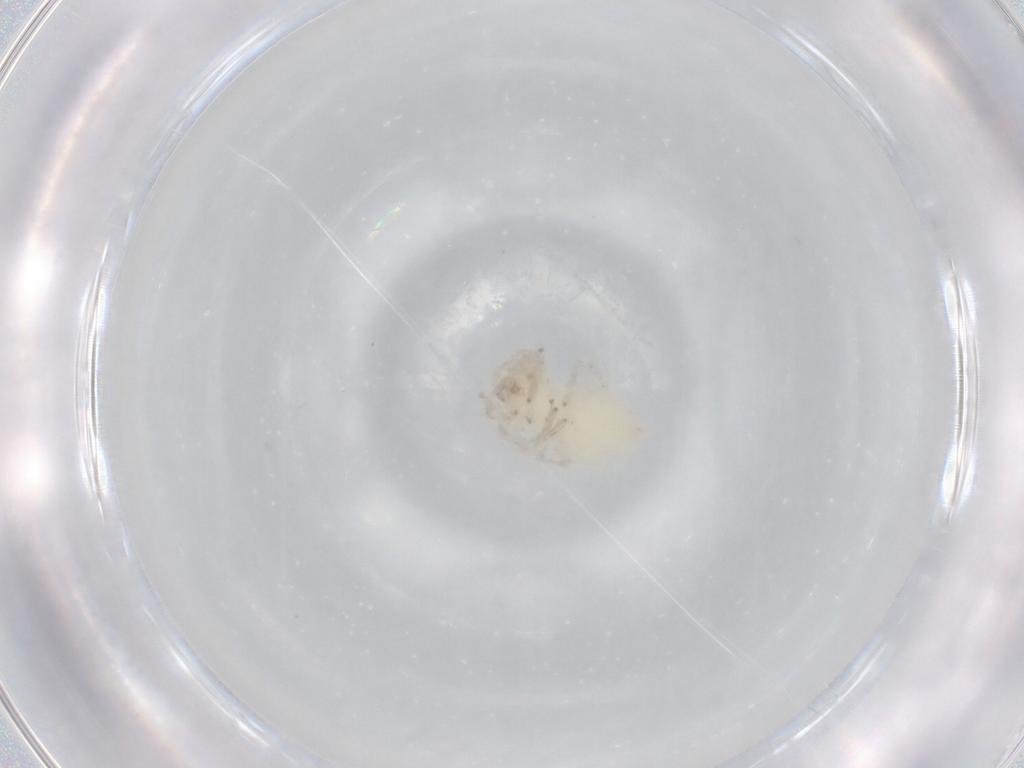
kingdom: Animalia
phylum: Arthropoda
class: Arachnida
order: Araneae
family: Anyphaenidae
